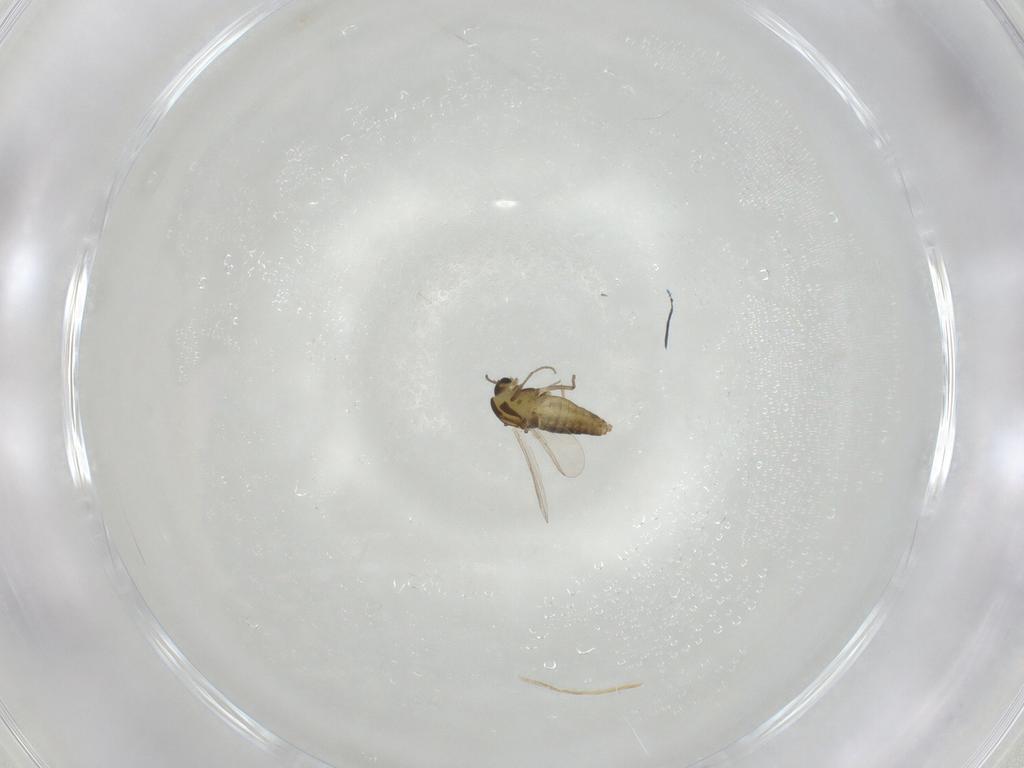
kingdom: Animalia
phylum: Arthropoda
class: Insecta
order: Diptera
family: Chironomidae
